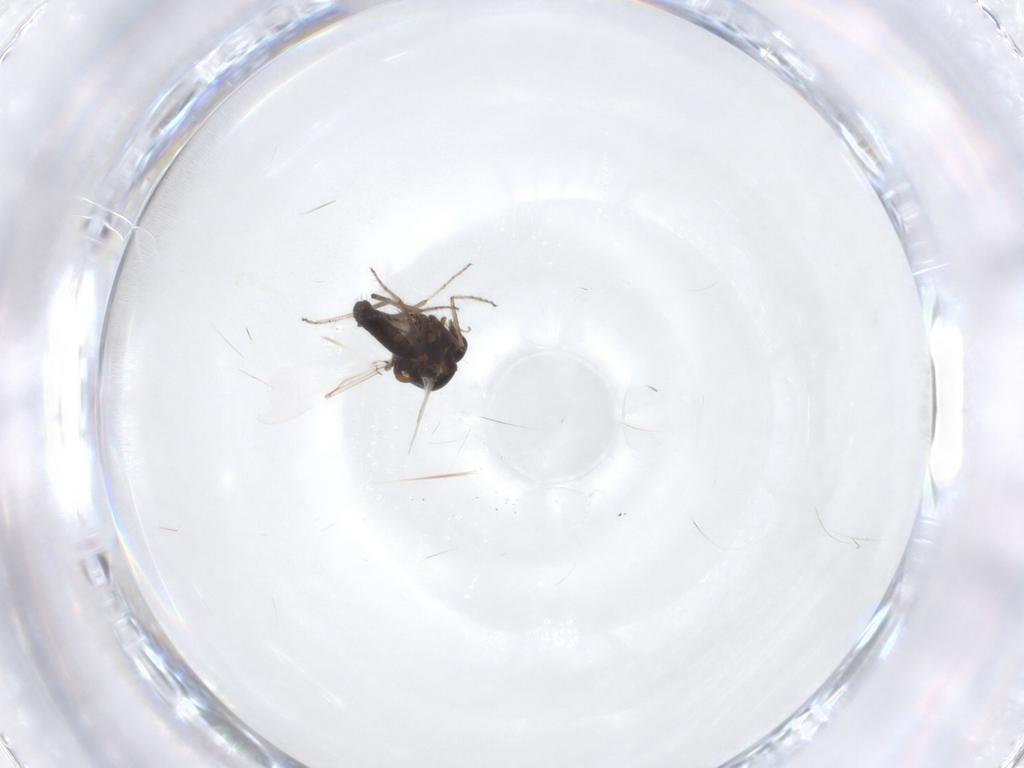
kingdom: Animalia
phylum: Arthropoda
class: Insecta
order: Diptera
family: Ceratopogonidae
